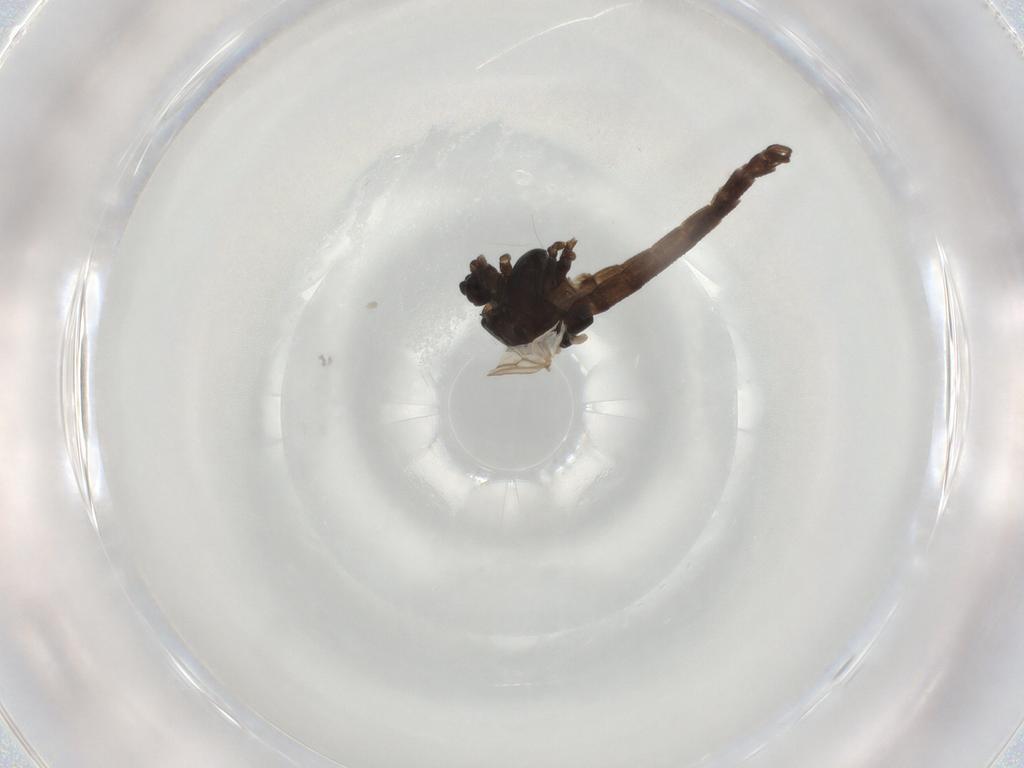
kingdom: Animalia
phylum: Arthropoda
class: Insecta
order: Diptera
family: Chironomidae
